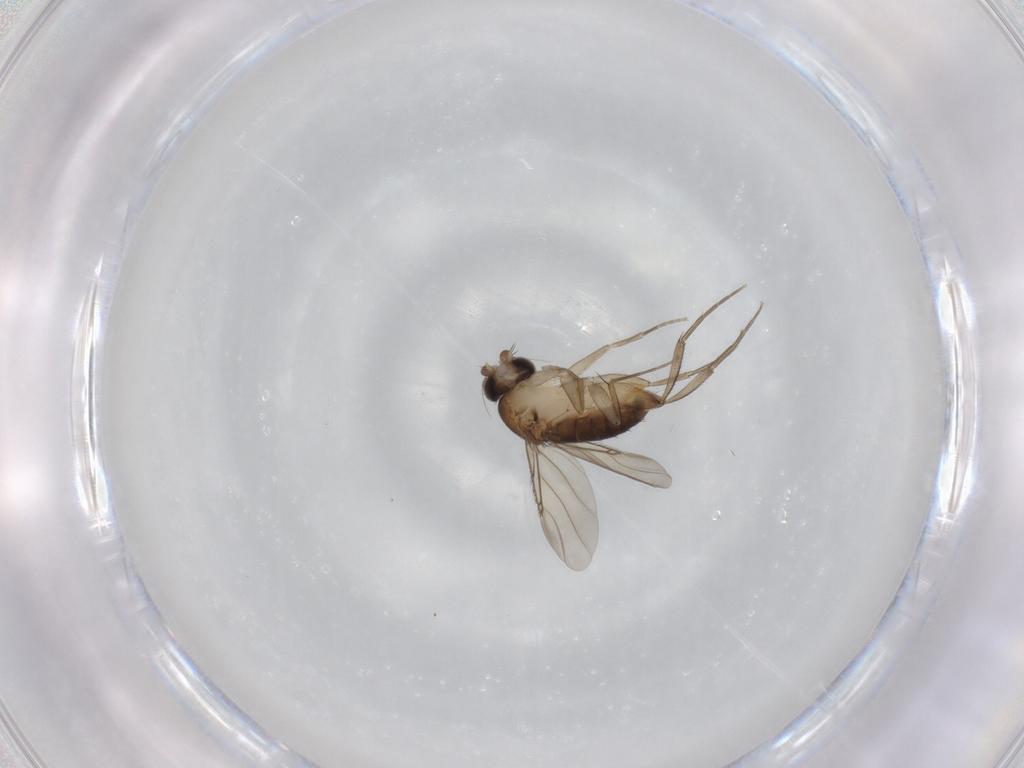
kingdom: Animalia
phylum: Arthropoda
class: Insecta
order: Diptera
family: Phoridae
